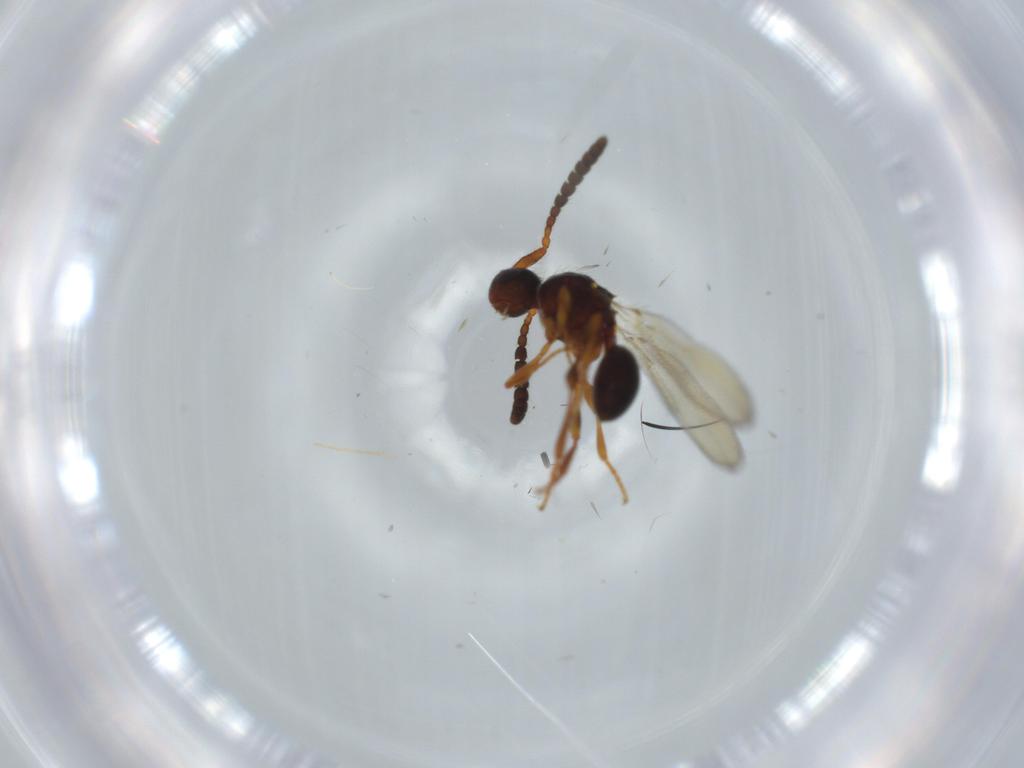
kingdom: Animalia
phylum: Arthropoda
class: Insecta
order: Hymenoptera
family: Diapriidae
